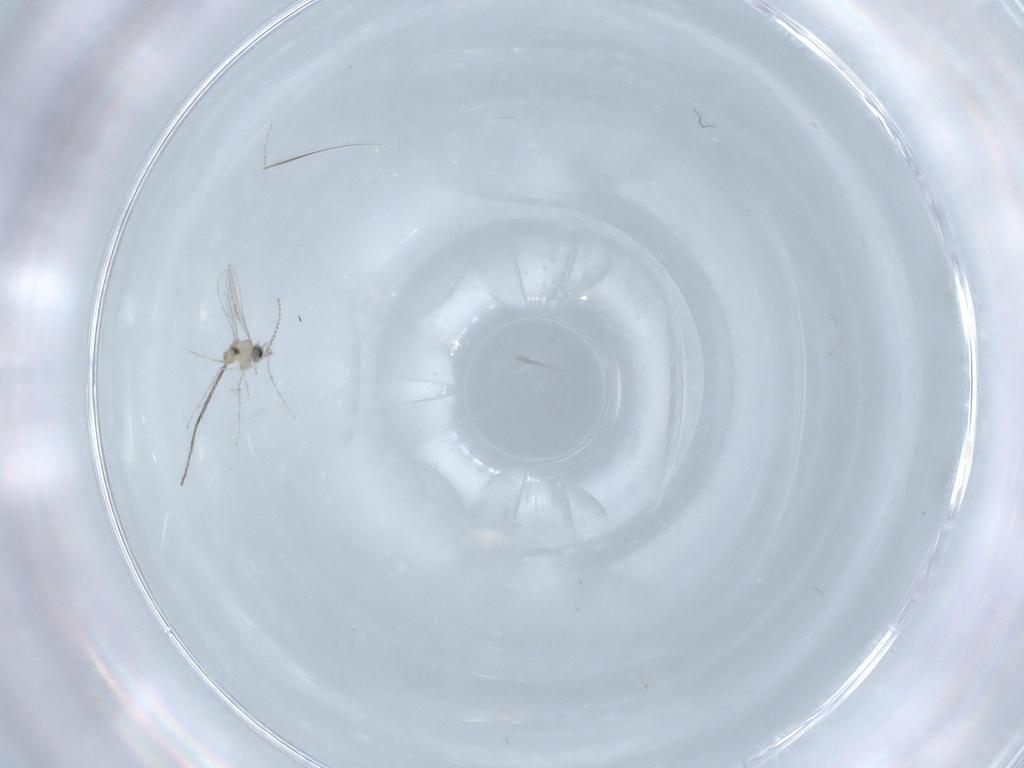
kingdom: Animalia
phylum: Arthropoda
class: Insecta
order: Diptera
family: Cecidomyiidae
